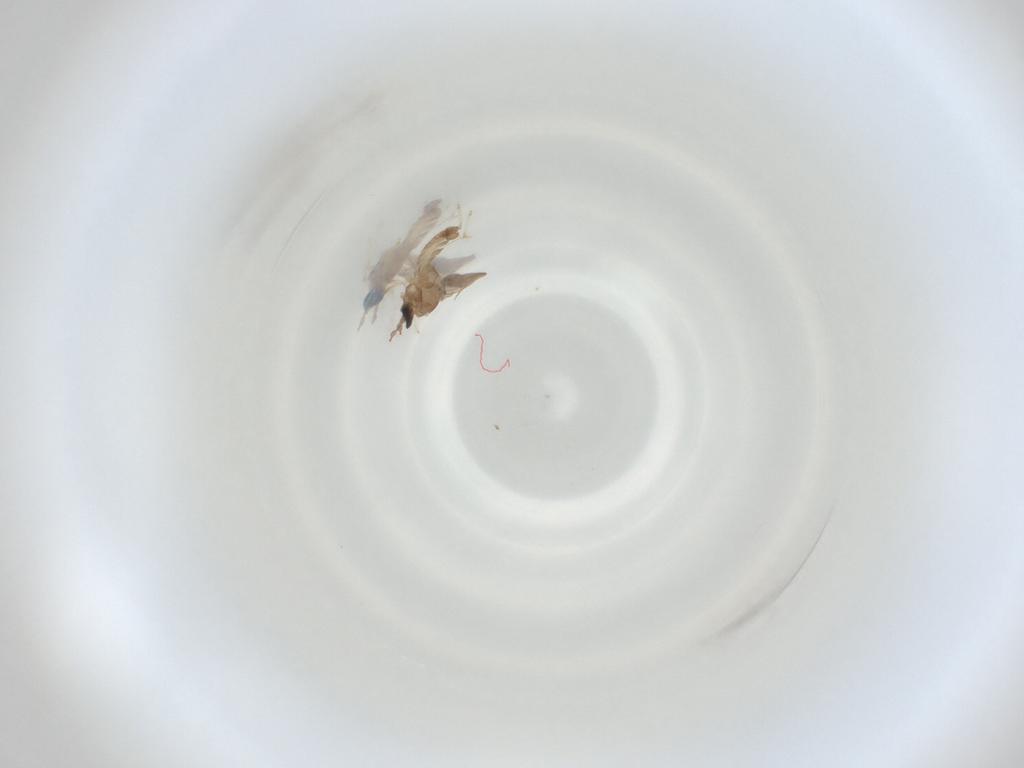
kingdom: Animalia
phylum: Arthropoda
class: Insecta
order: Diptera
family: Cecidomyiidae
